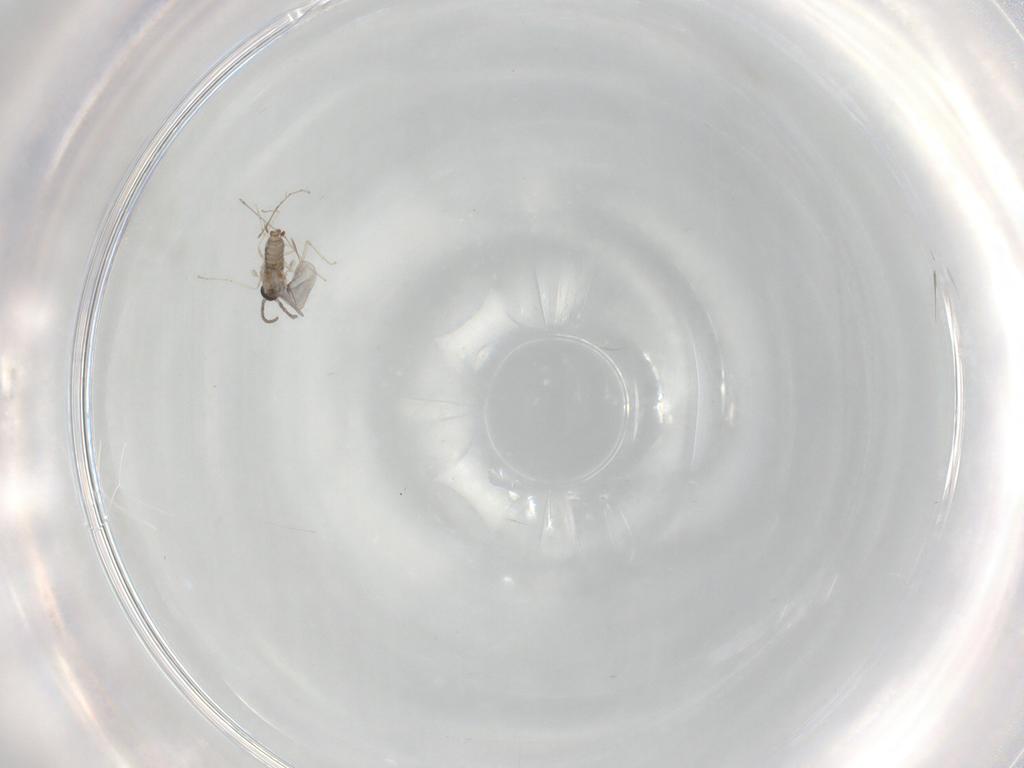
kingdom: Animalia
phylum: Arthropoda
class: Insecta
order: Diptera
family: Cecidomyiidae
